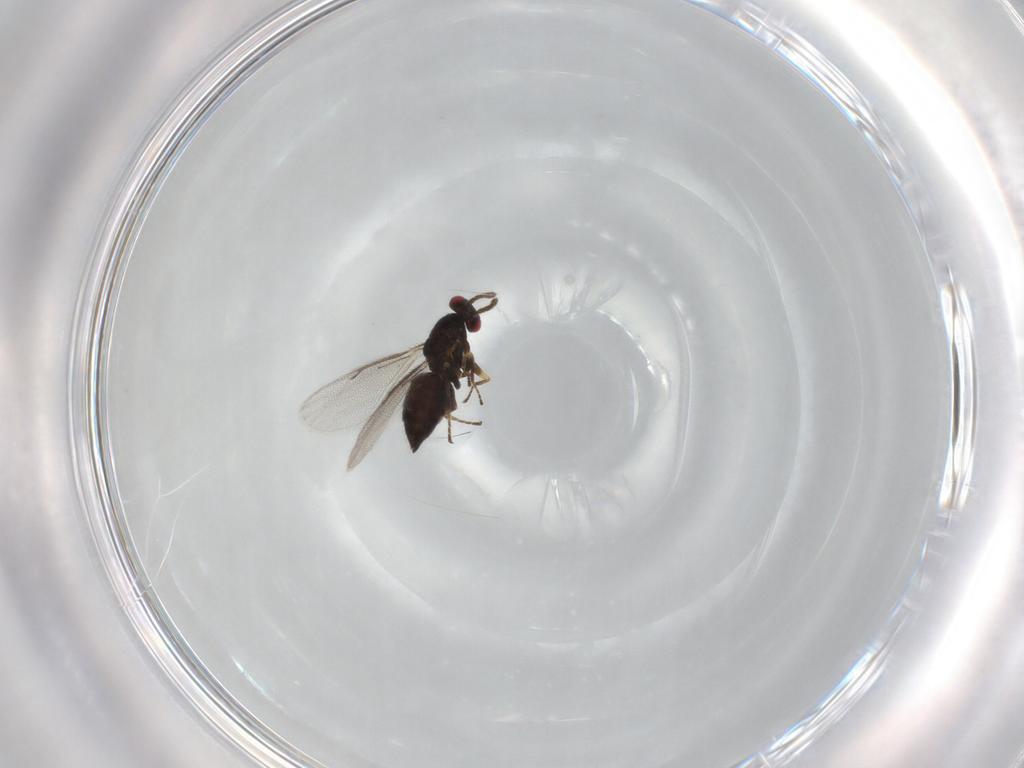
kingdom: Animalia
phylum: Arthropoda
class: Insecta
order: Hymenoptera
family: Eulophidae
